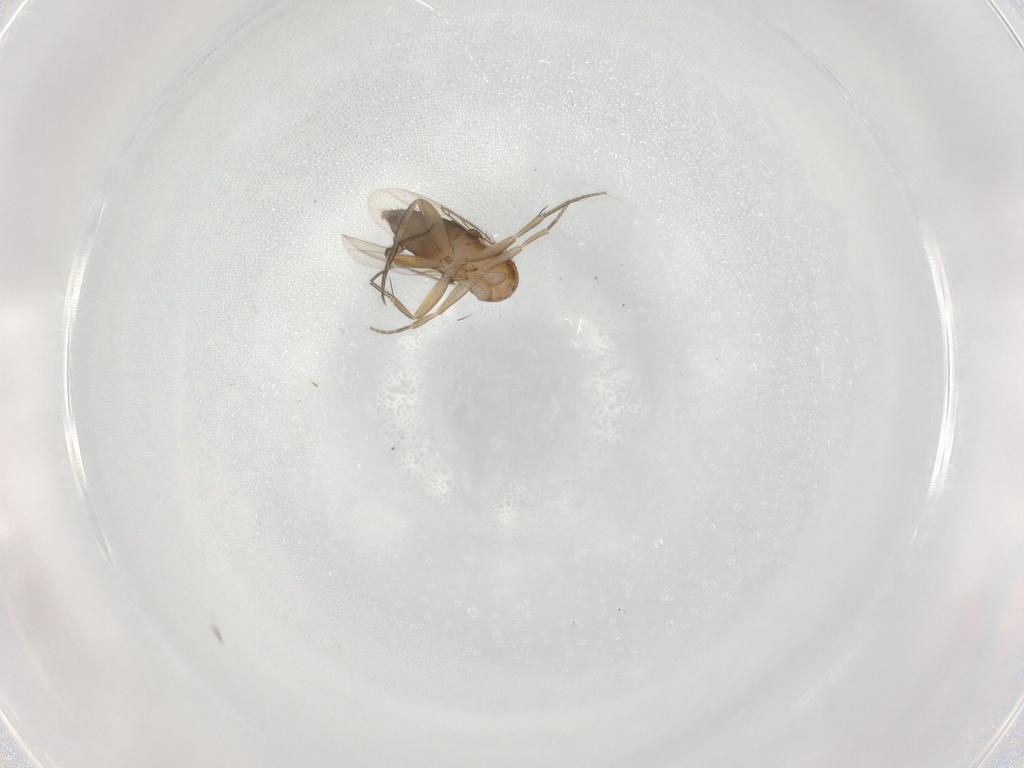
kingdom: Animalia
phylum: Arthropoda
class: Insecta
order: Diptera
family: Phoridae
